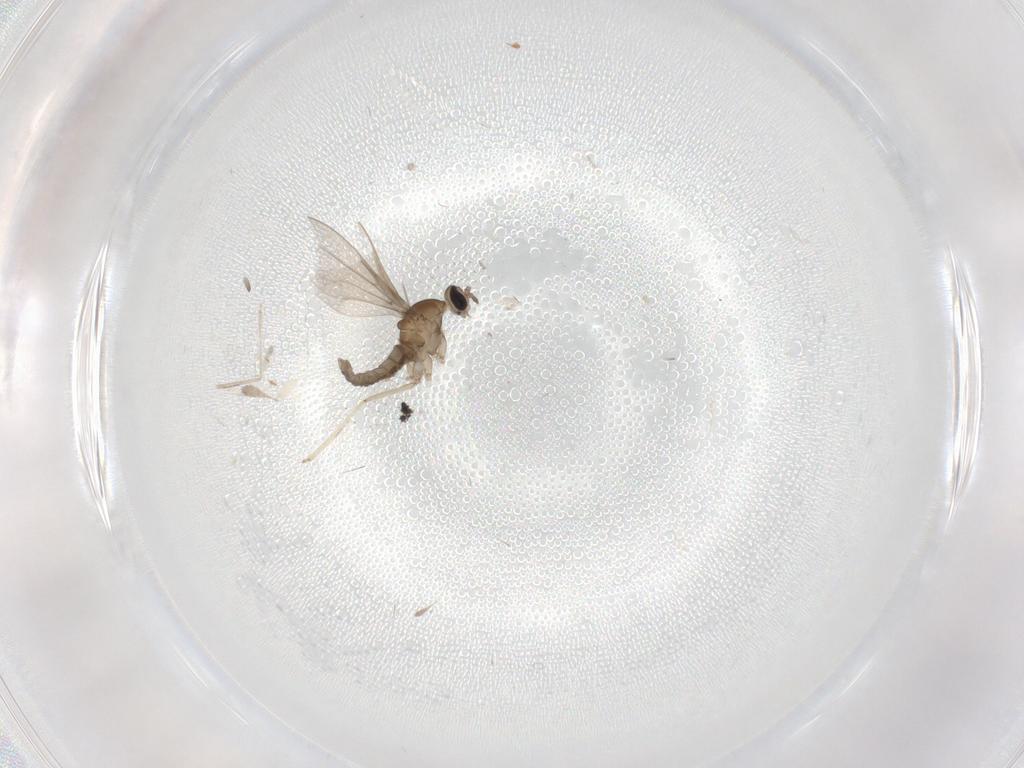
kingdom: Animalia
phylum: Arthropoda
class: Insecta
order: Diptera
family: Cecidomyiidae
